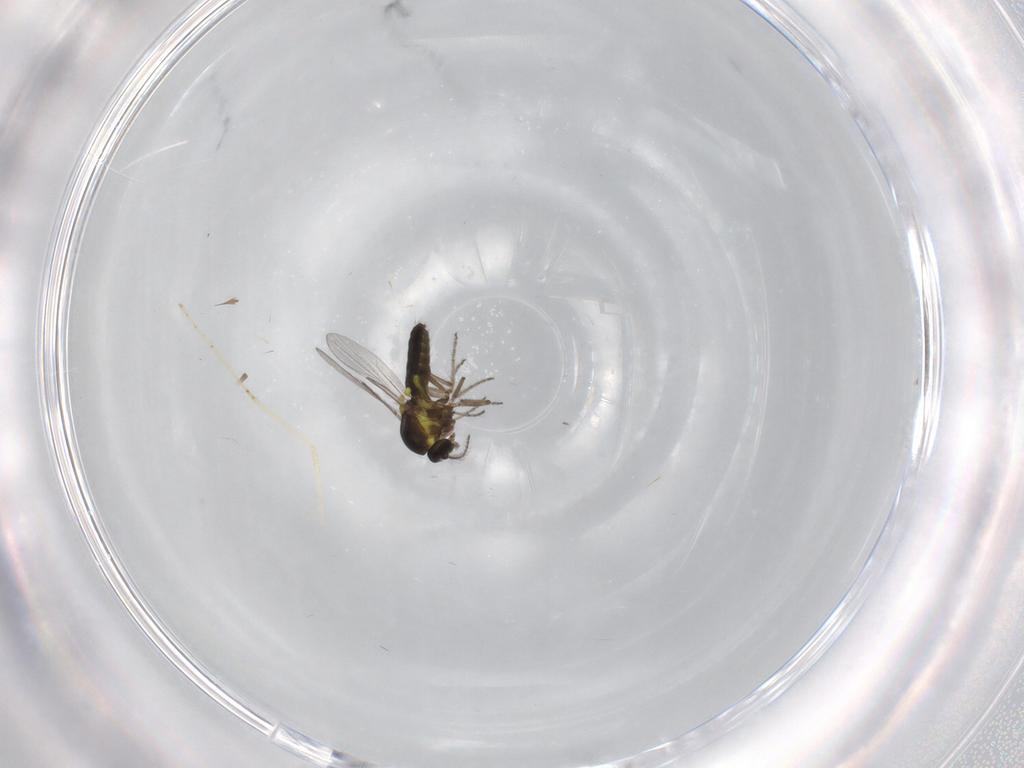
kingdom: Animalia
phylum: Arthropoda
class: Insecta
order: Diptera
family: Ceratopogonidae
